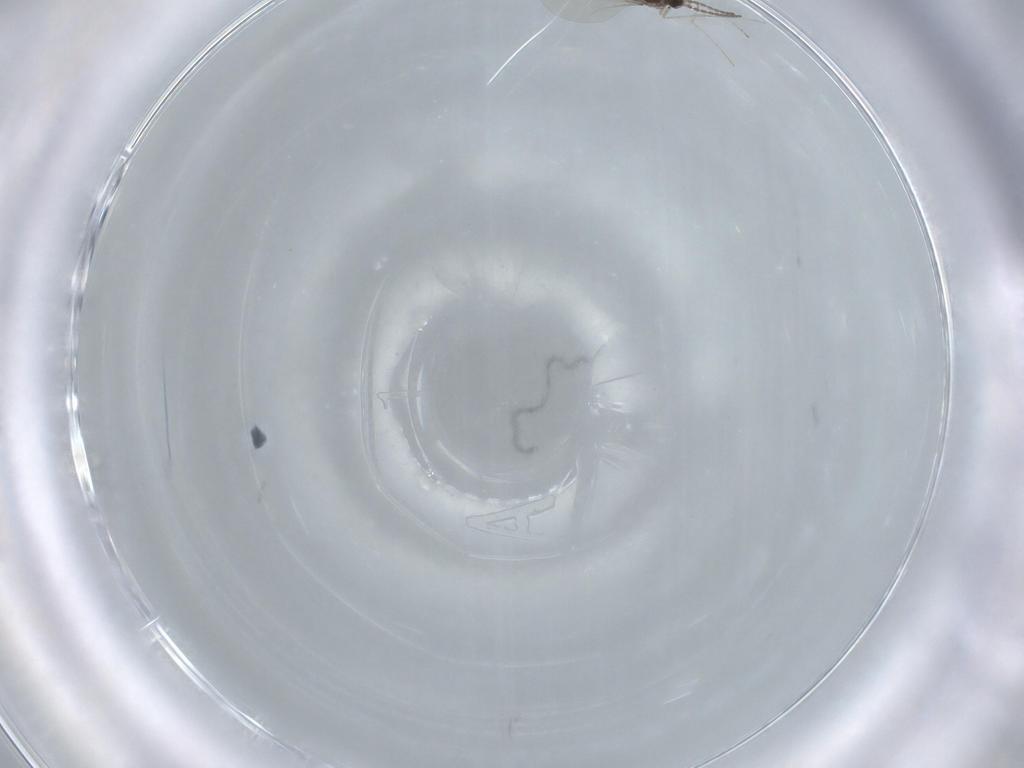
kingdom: Animalia
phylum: Arthropoda
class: Insecta
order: Diptera
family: Cecidomyiidae
